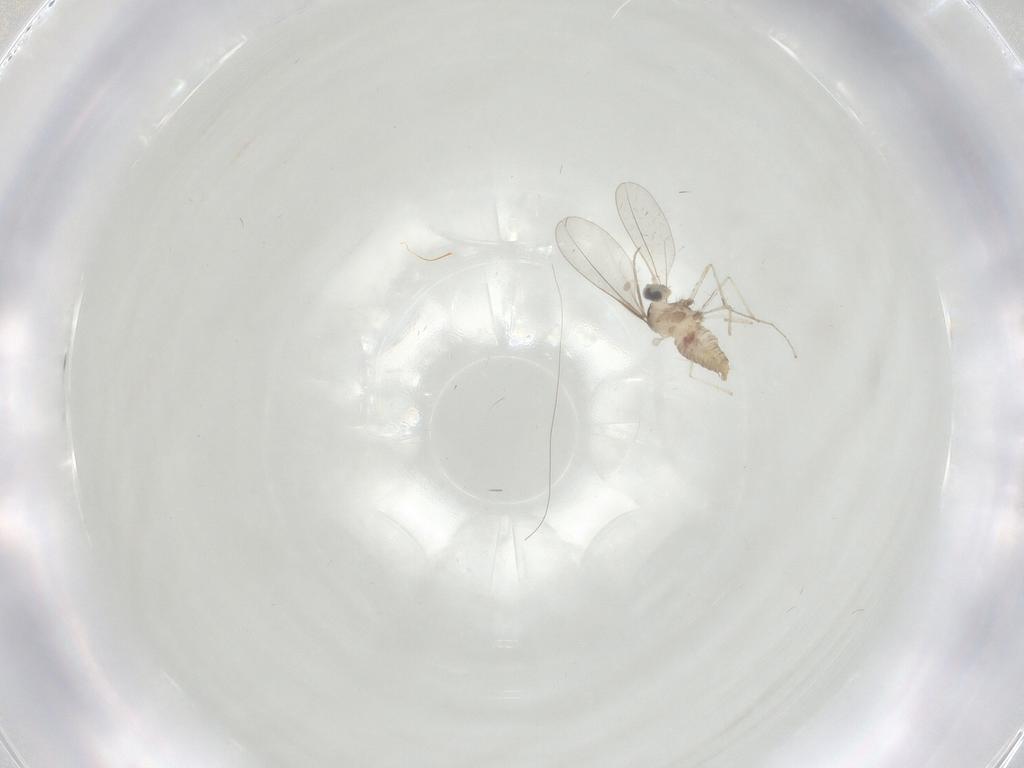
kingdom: Animalia
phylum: Arthropoda
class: Insecta
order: Diptera
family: Cecidomyiidae
